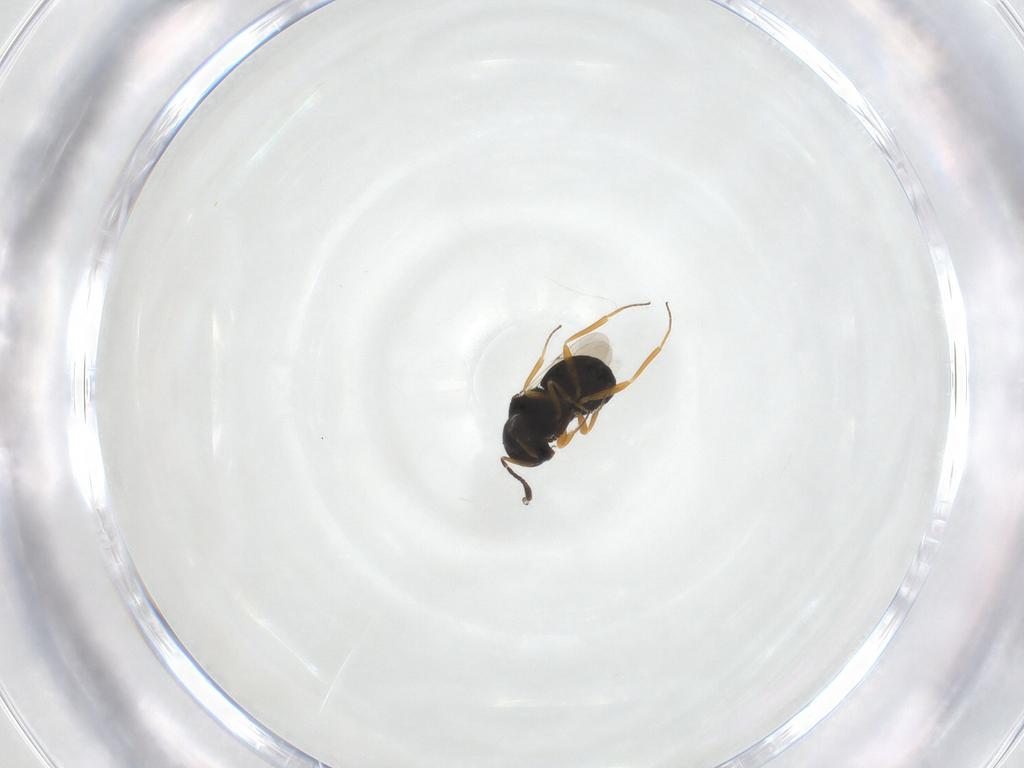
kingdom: Animalia
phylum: Arthropoda
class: Insecta
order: Hymenoptera
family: Scelionidae
